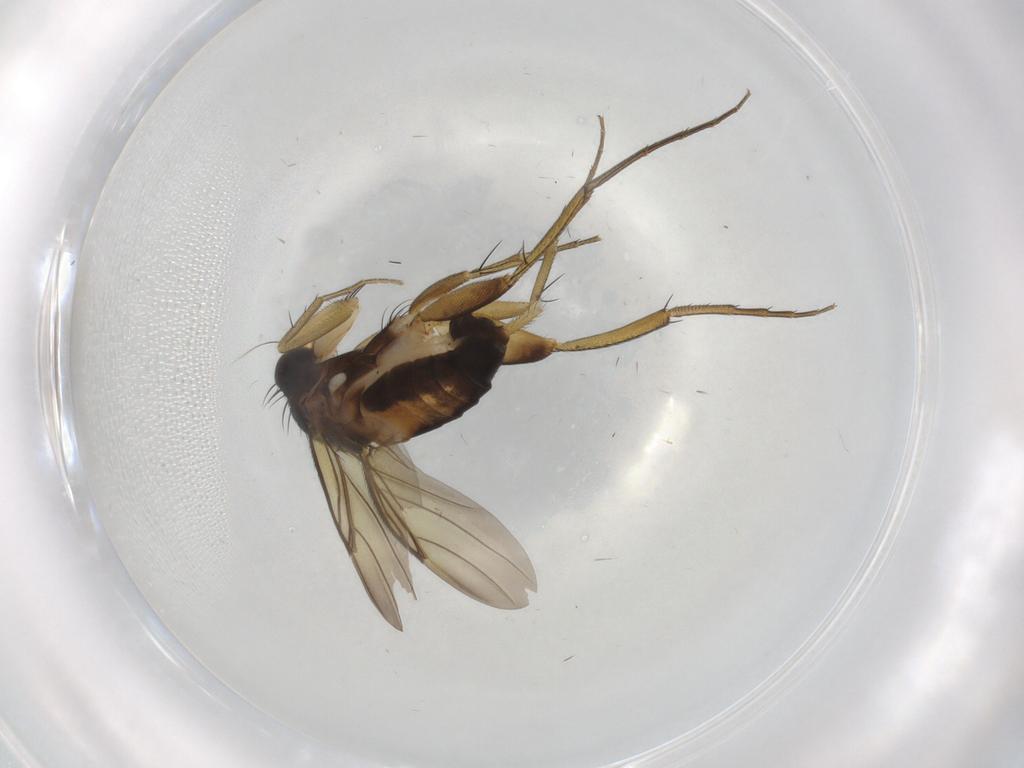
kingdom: Animalia
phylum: Arthropoda
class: Insecta
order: Diptera
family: Phoridae
